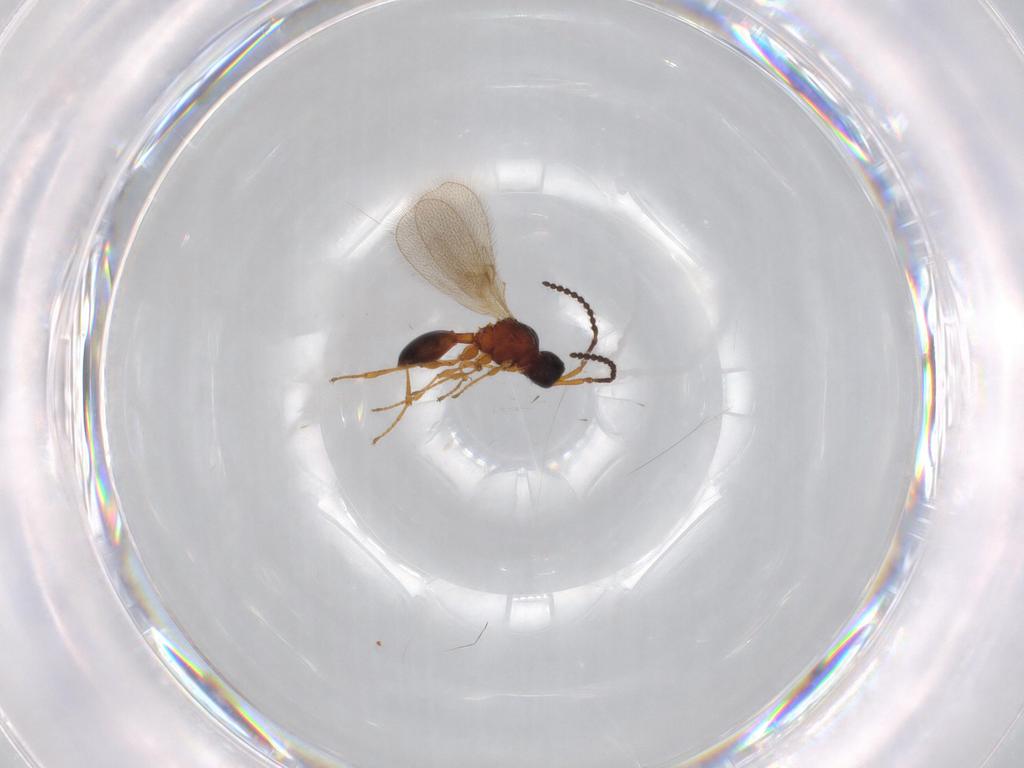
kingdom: Animalia
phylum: Arthropoda
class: Insecta
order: Hymenoptera
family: Diapriidae
